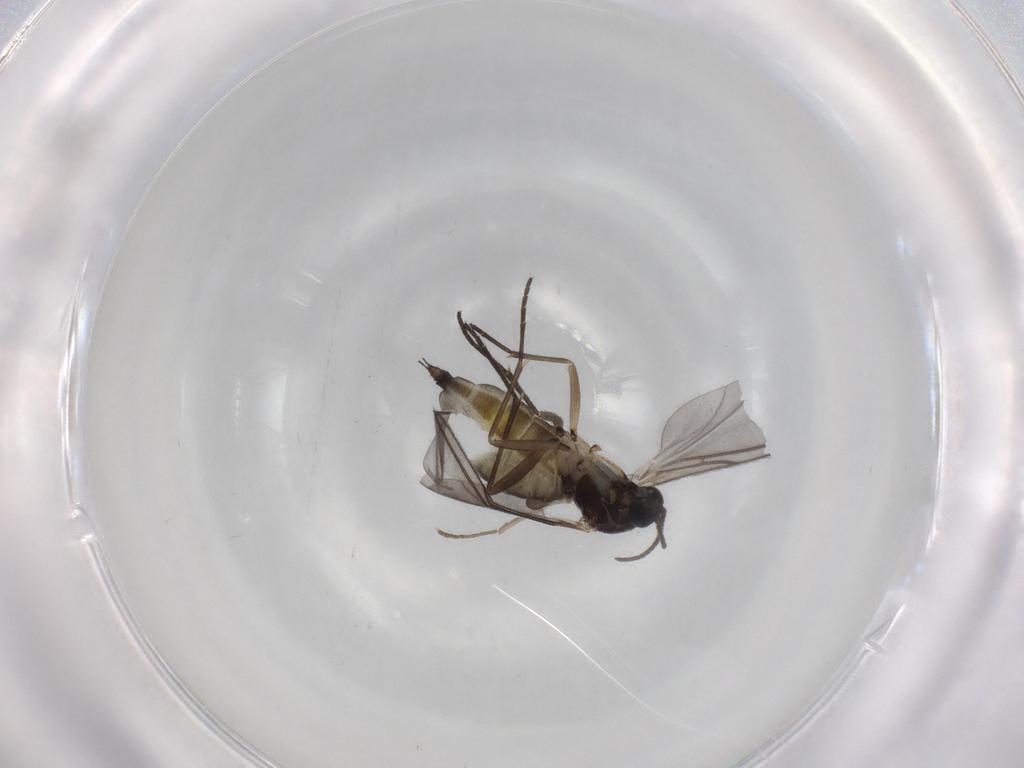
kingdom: Animalia
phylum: Arthropoda
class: Insecta
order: Diptera
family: Sciaridae
